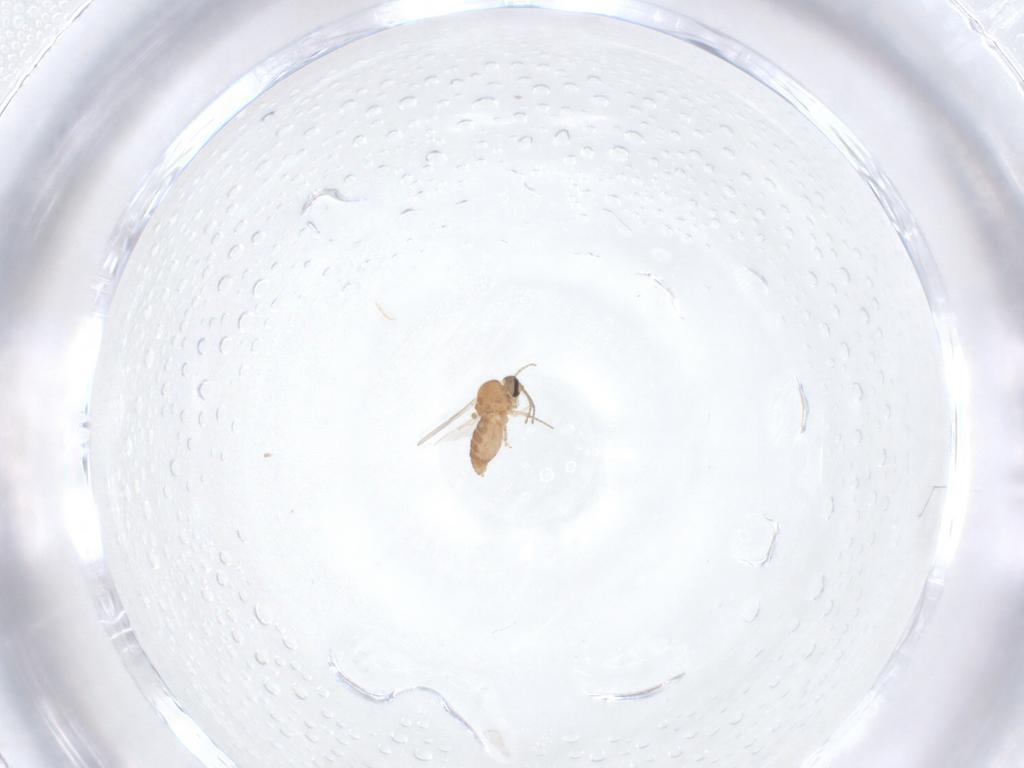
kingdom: Animalia
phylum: Arthropoda
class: Insecta
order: Diptera
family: Ceratopogonidae
